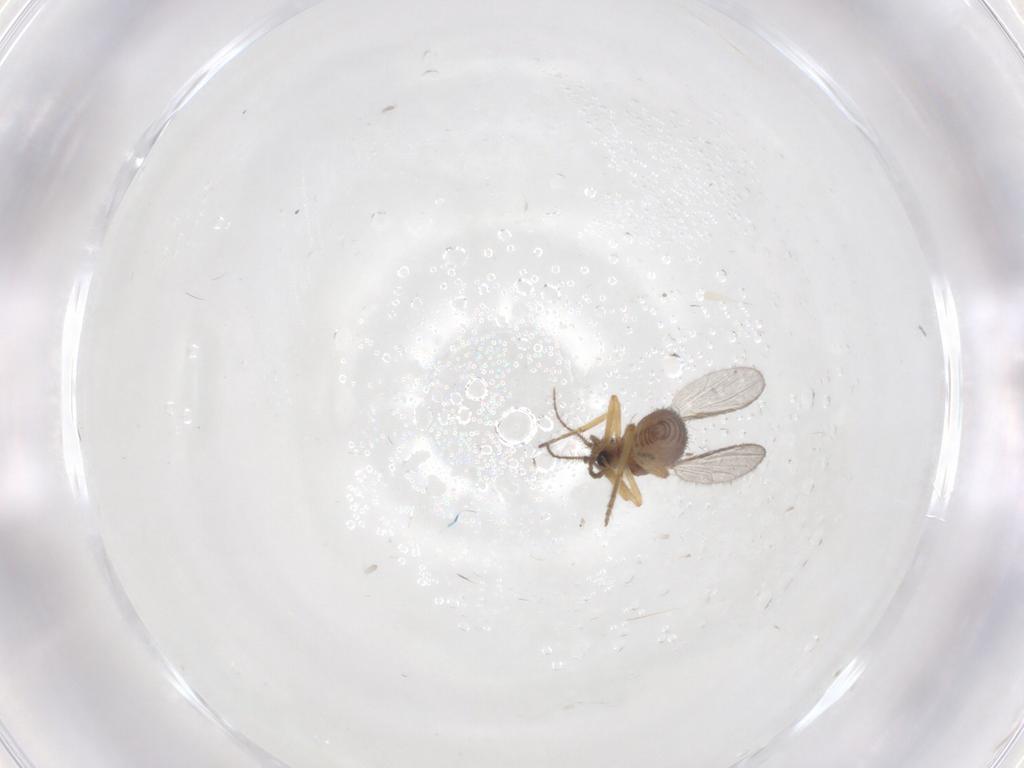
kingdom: Animalia
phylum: Arthropoda
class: Insecta
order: Diptera
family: Ceratopogonidae
